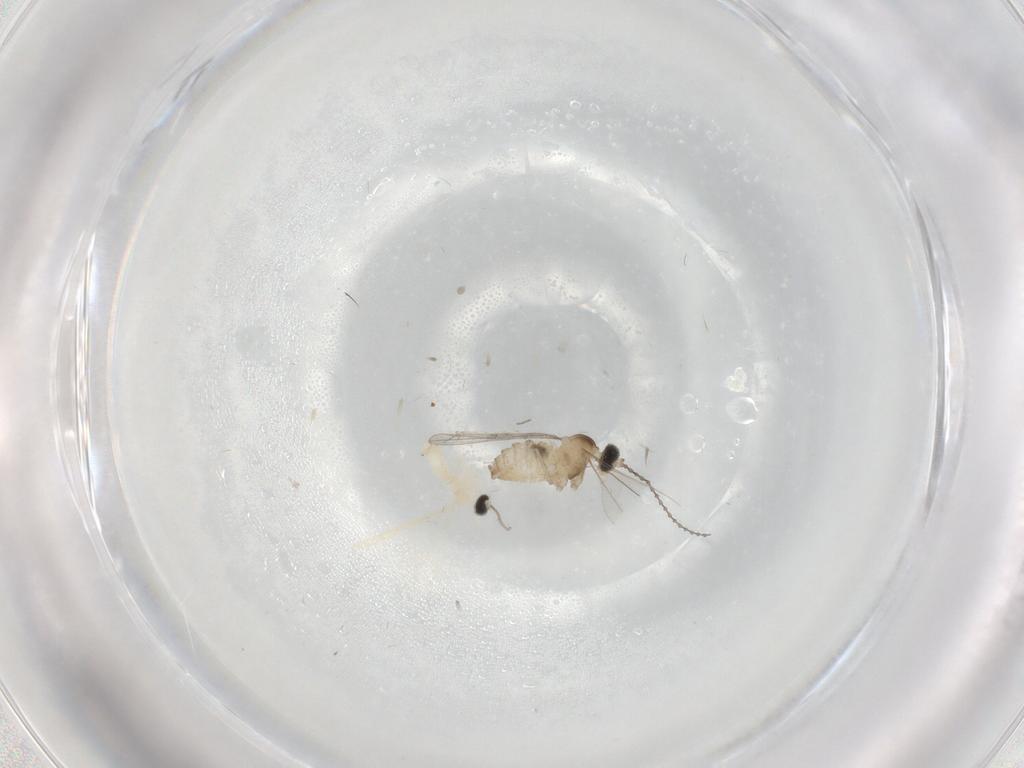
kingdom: Animalia
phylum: Arthropoda
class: Insecta
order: Diptera
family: Cecidomyiidae
